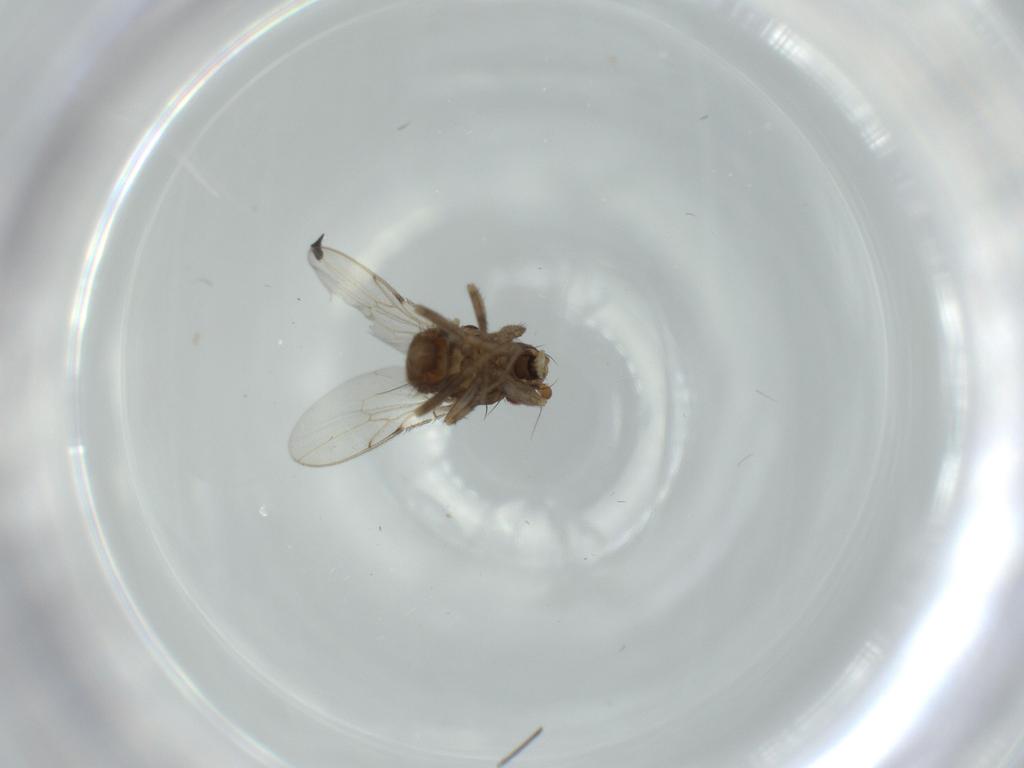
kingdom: Animalia
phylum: Arthropoda
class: Insecta
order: Diptera
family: Sphaeroceridae
